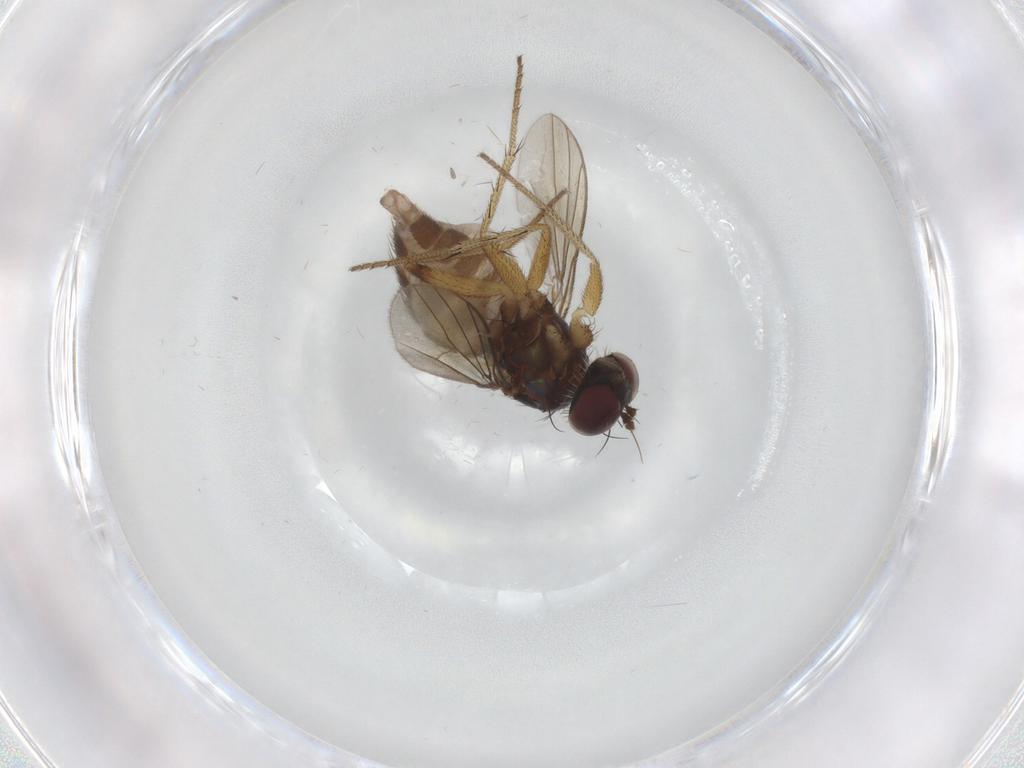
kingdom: Animalia
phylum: Arthropoda
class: Insecta
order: Diptera
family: Dolichopodidae
